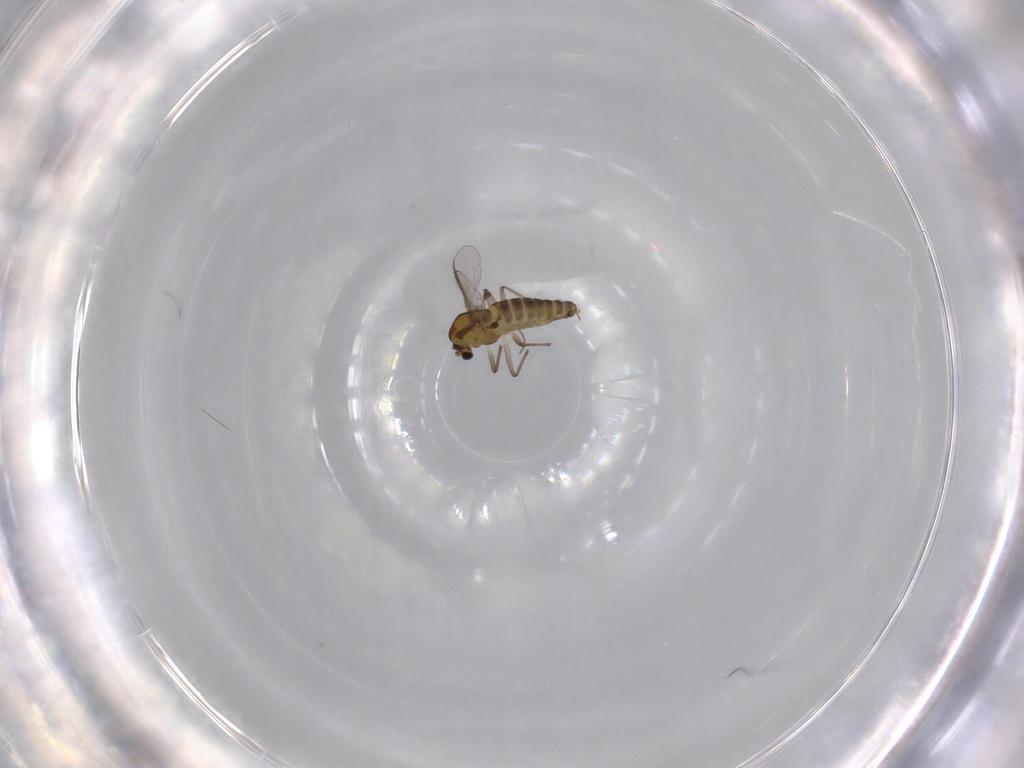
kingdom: Animalia
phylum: Arthropoda
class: Insecta
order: Diptera
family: Chironomidae
